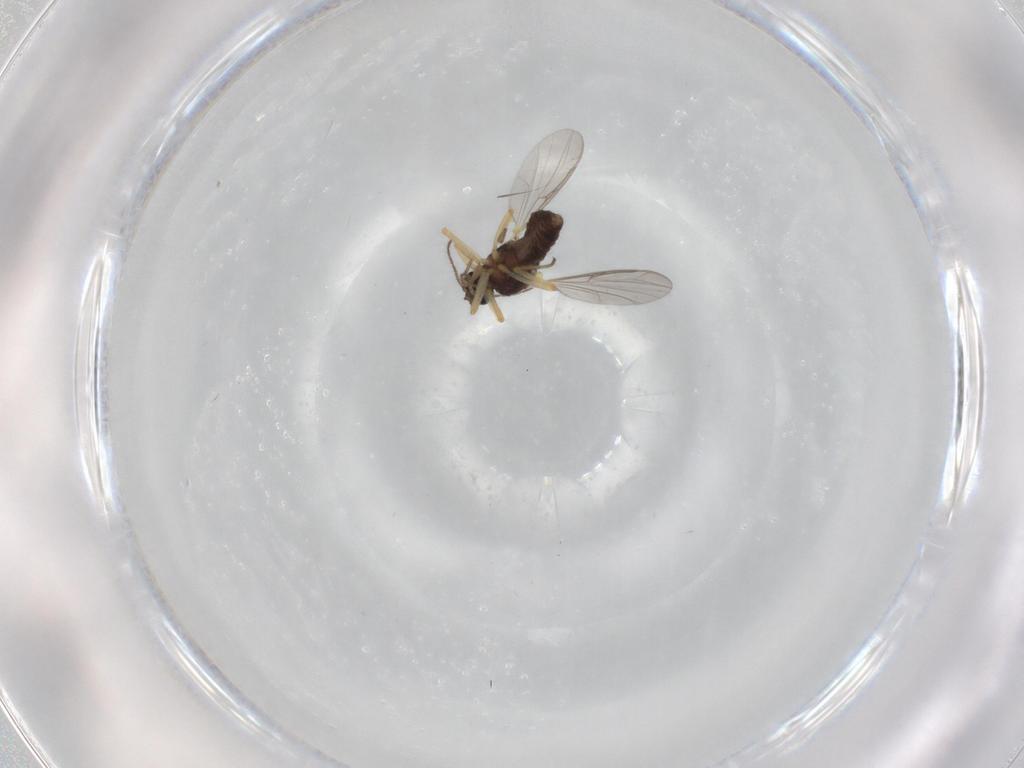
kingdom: Animalia
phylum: Arthropoda
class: Insecta
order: Diptera
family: Ceratopogonidae
